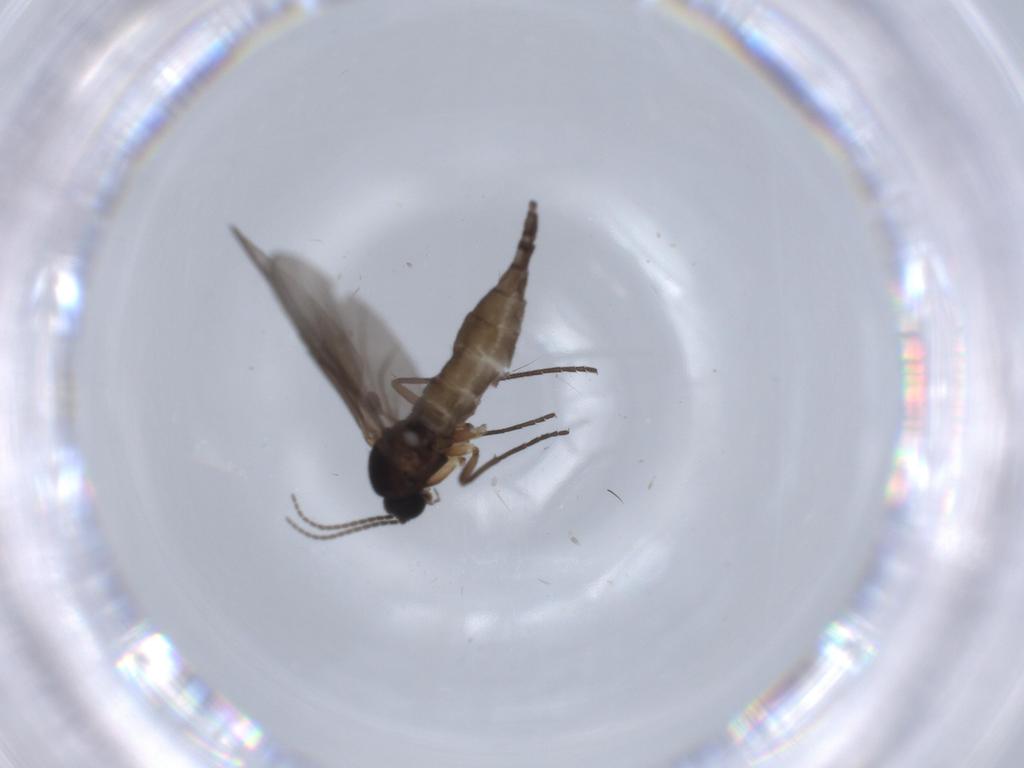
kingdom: Animalia
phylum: Arthropoda
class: Insecta
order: Diptera
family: Sciaridae
